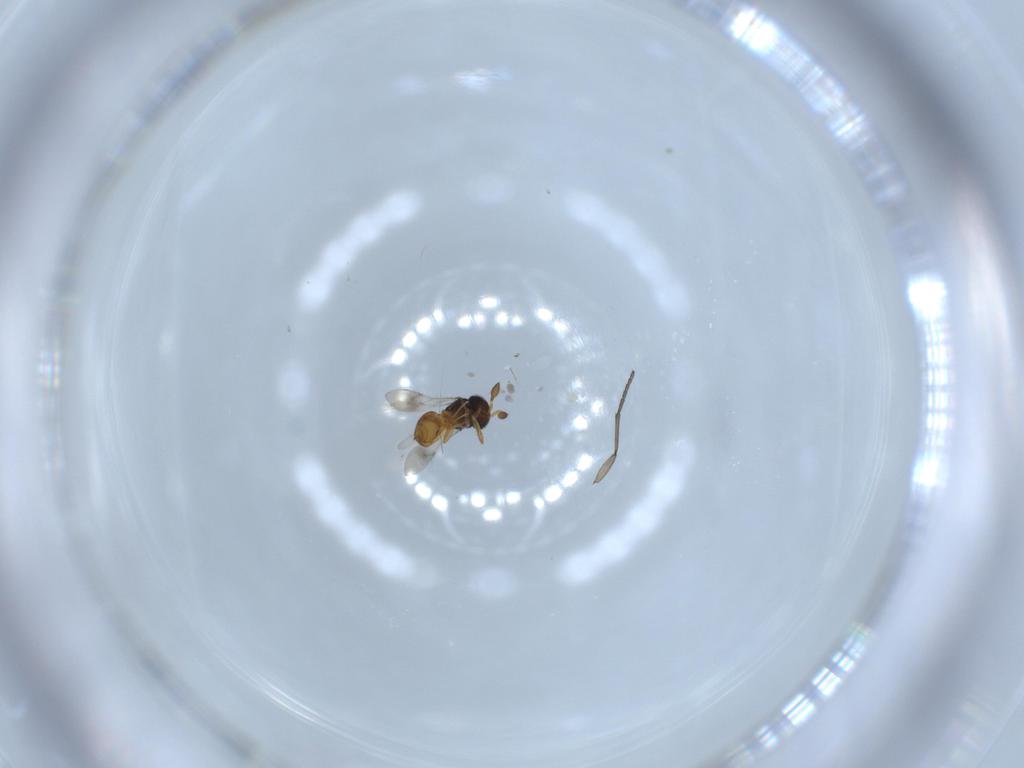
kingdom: Animalia
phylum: Arthropoda
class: Insecta
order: Hymenoptera
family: Scelionidae
